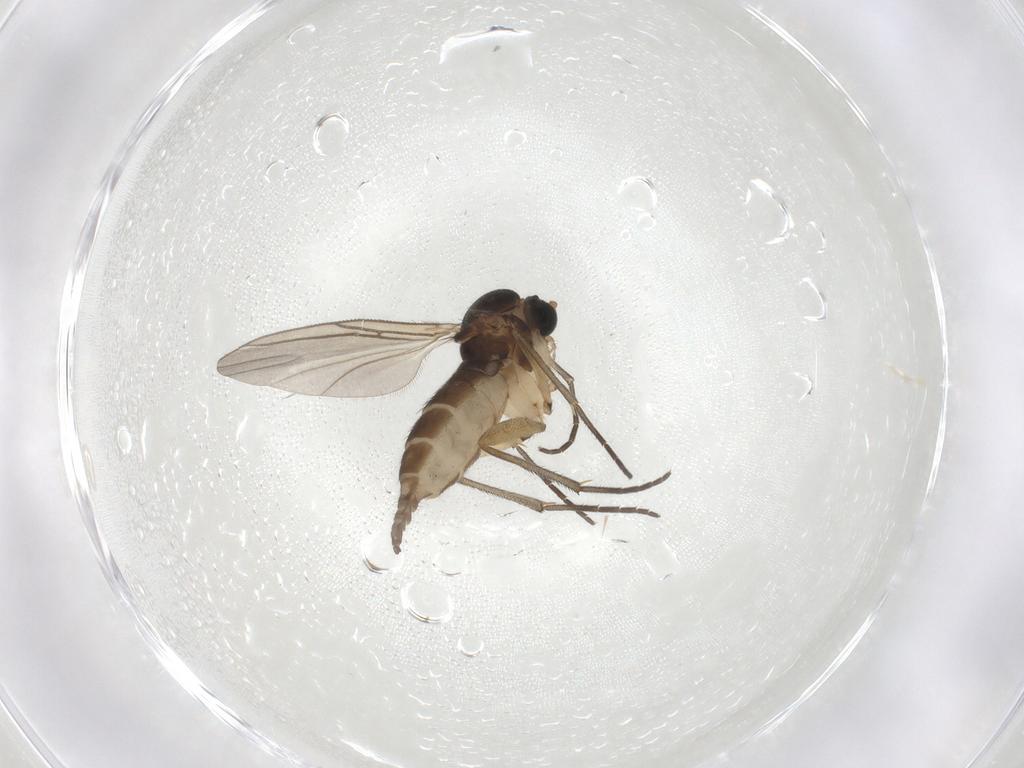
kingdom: Animalia
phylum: Arthropoda
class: Insecta
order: Diptera
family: Sciaridae
